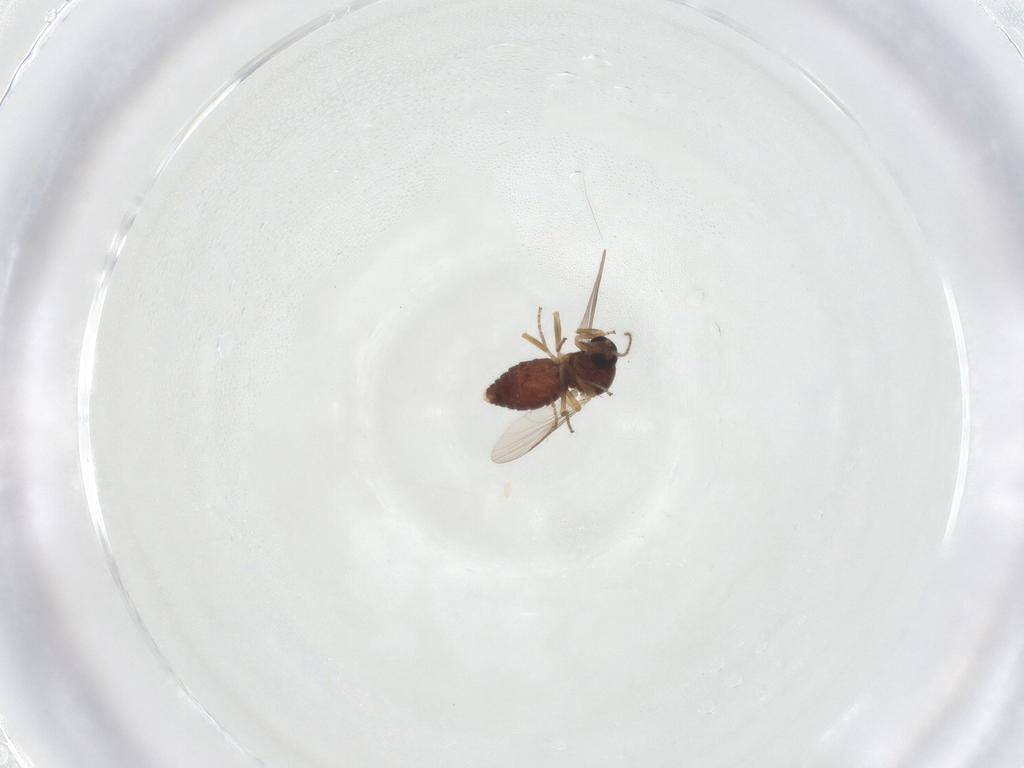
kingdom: Animalia
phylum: Arthropoda
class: Insecta
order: Diptera
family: Ceratopogonidae
